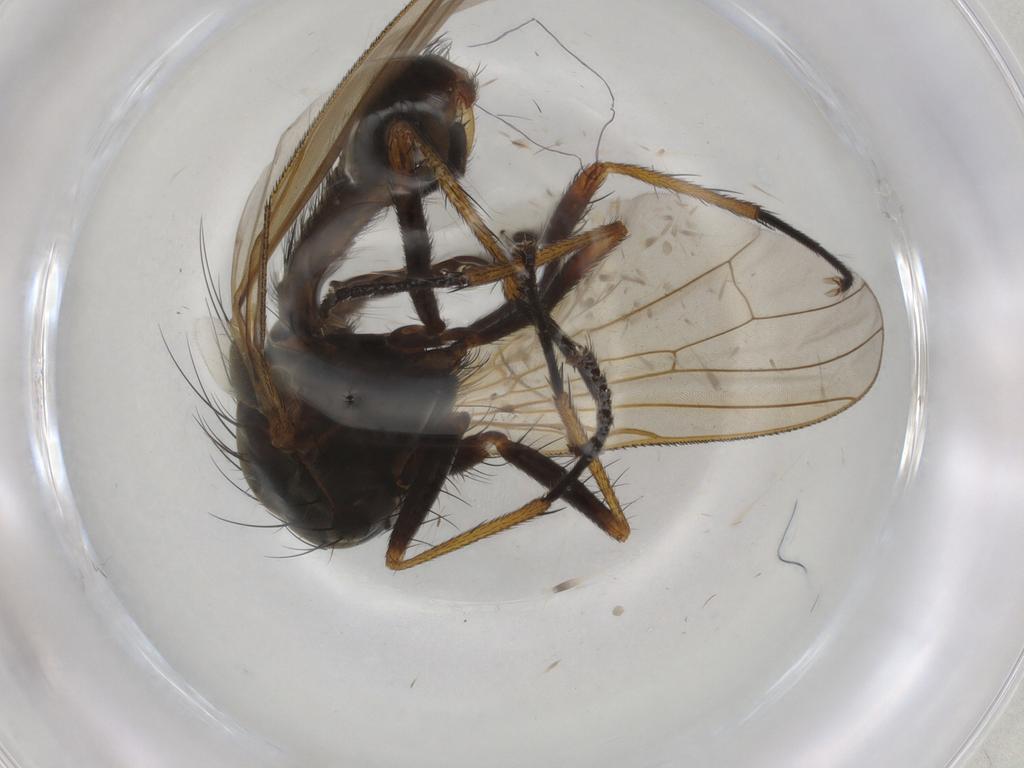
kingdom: Animalia
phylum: Arthropoda
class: Insecta
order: Diptera
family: Anthomyiidae
